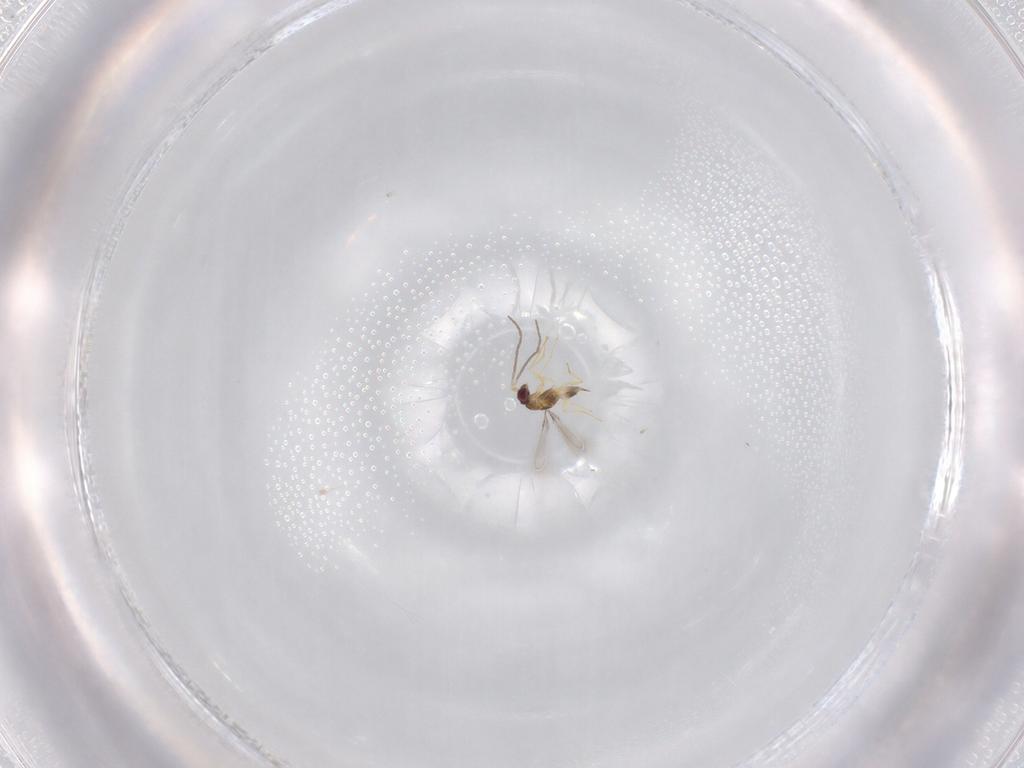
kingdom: Animalia
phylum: Arthropoda
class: Insecta
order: Hymenoptera
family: Mymaridae
